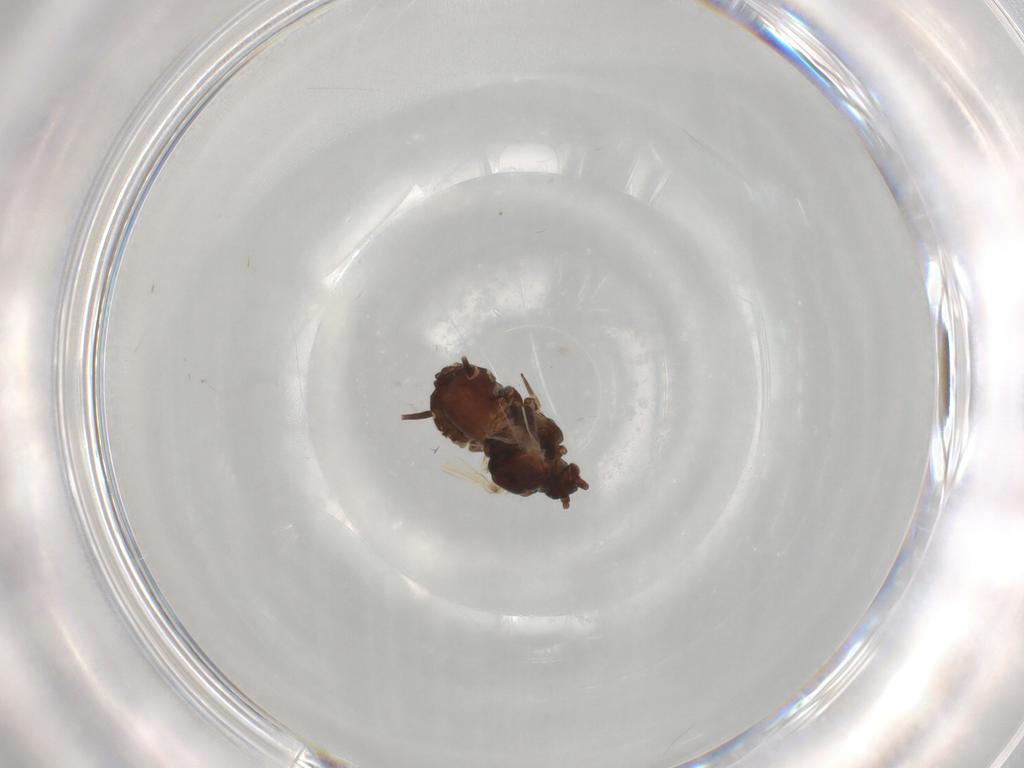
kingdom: Animalia
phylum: Arthropoda
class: Insecta
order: Hemiptera
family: Aphididae
